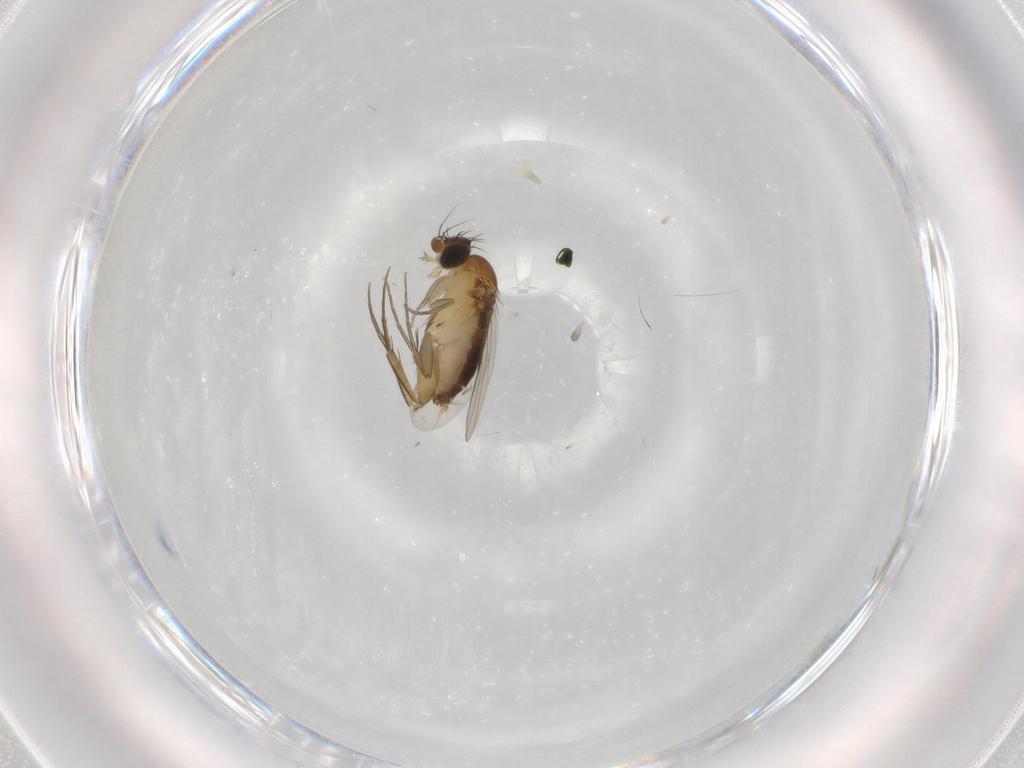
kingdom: Animalia
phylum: Arthropoda
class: Insecta
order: Diptera
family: Phoridae
